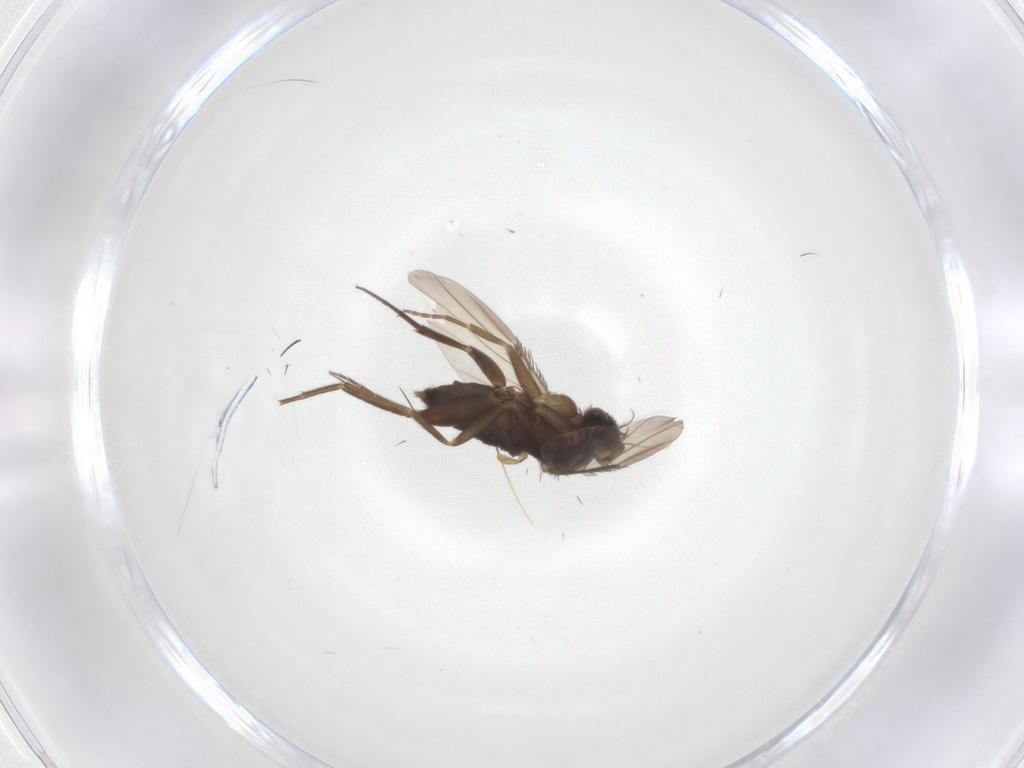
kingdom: Animalia
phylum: Arthropoda
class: Insecta
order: Diptera
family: Phoridae
